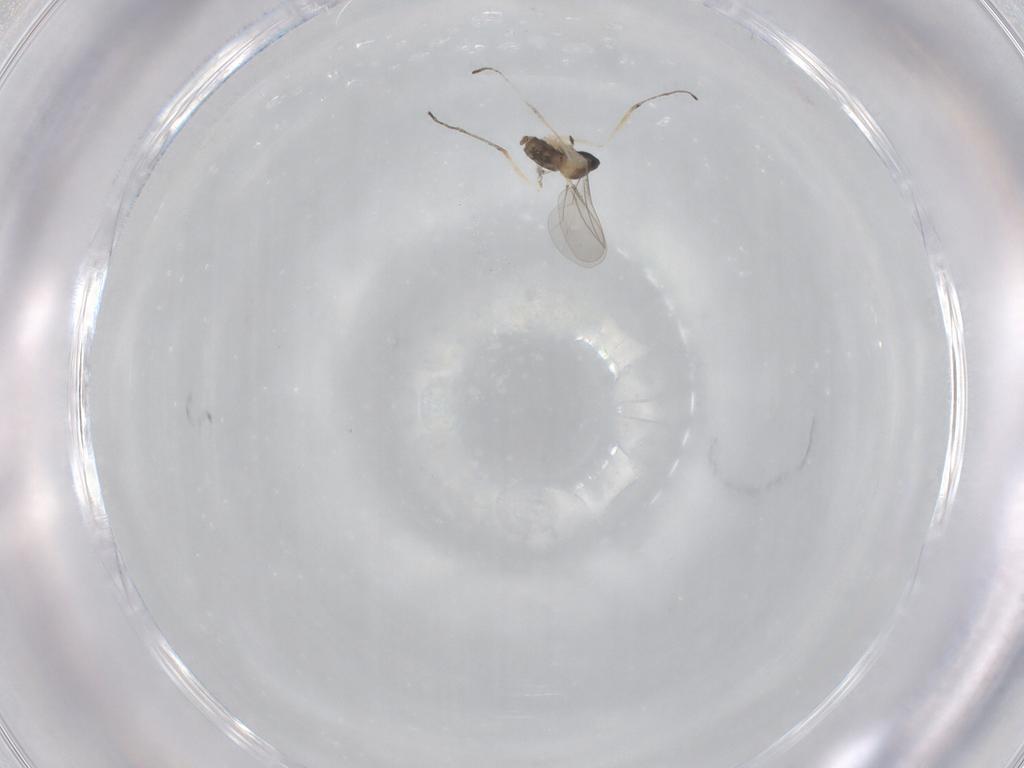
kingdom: Animalia
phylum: Arthropoda
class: Insecta
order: Diptera
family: Cecidomyiidae
